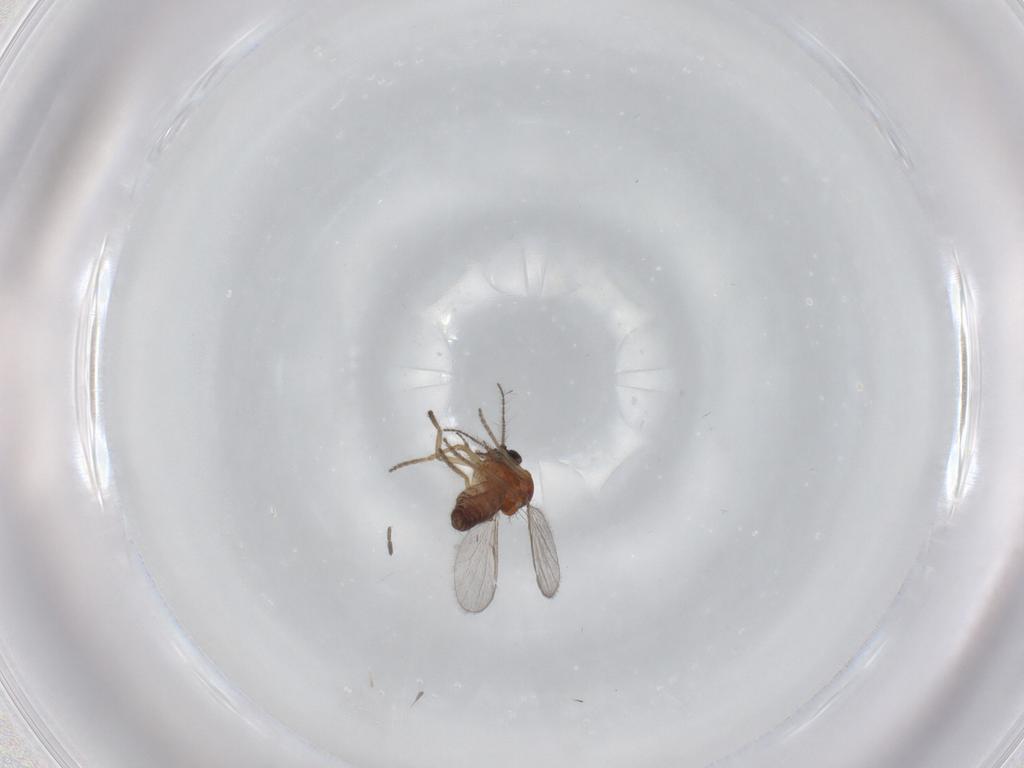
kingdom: Animalia
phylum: Arthropoda
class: Insecta
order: Diptera
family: Ceratopogonidae
